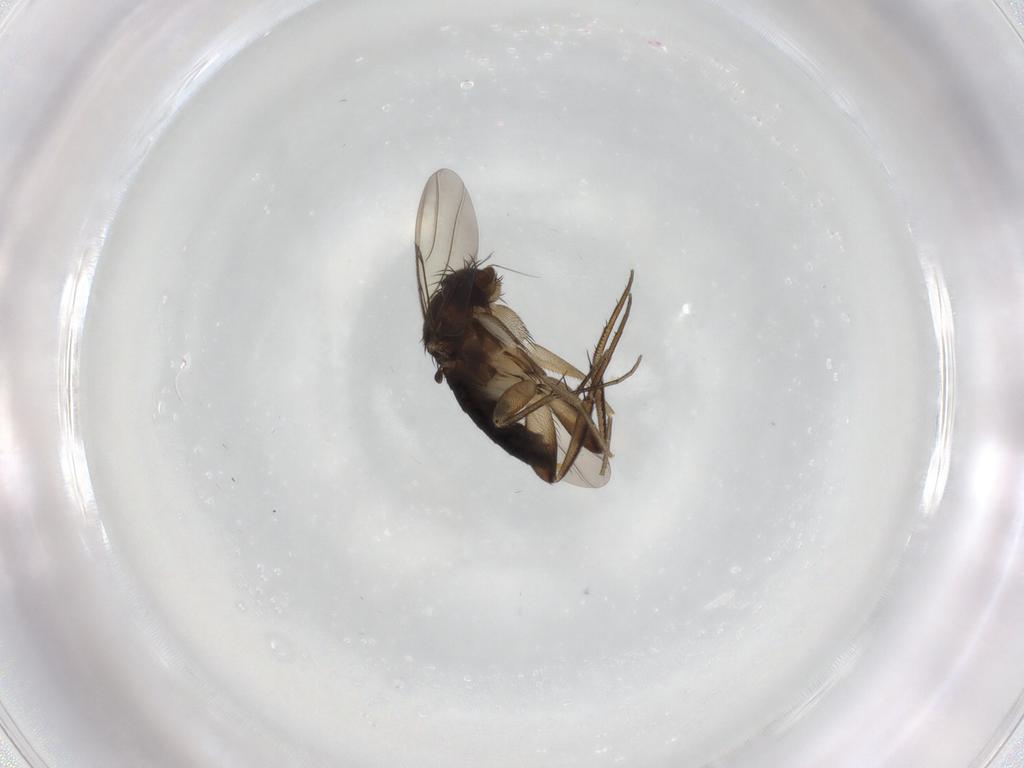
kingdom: Animalia
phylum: Arthropoda
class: Insecta
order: Diptera
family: Phoridae
